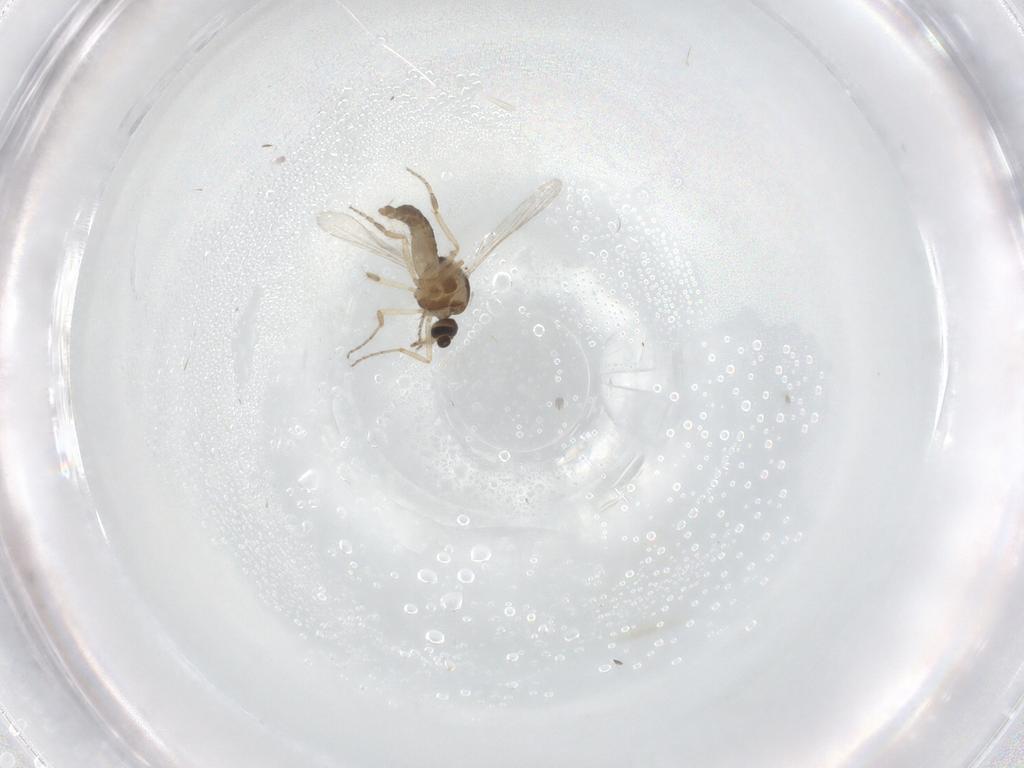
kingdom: Animalia
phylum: Arthropoda
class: Insecta
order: Diptera
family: Ceratopogonidae
